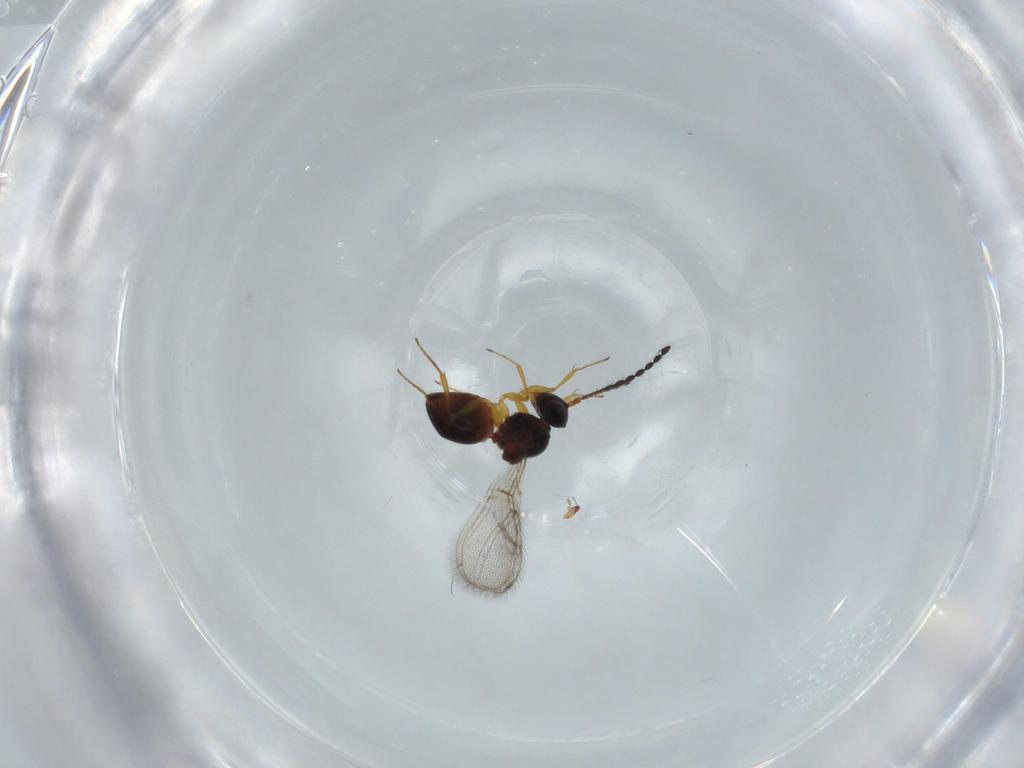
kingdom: Animalia
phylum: Arthropoda
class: Insecta
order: Hymenoptera
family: Figitidae
